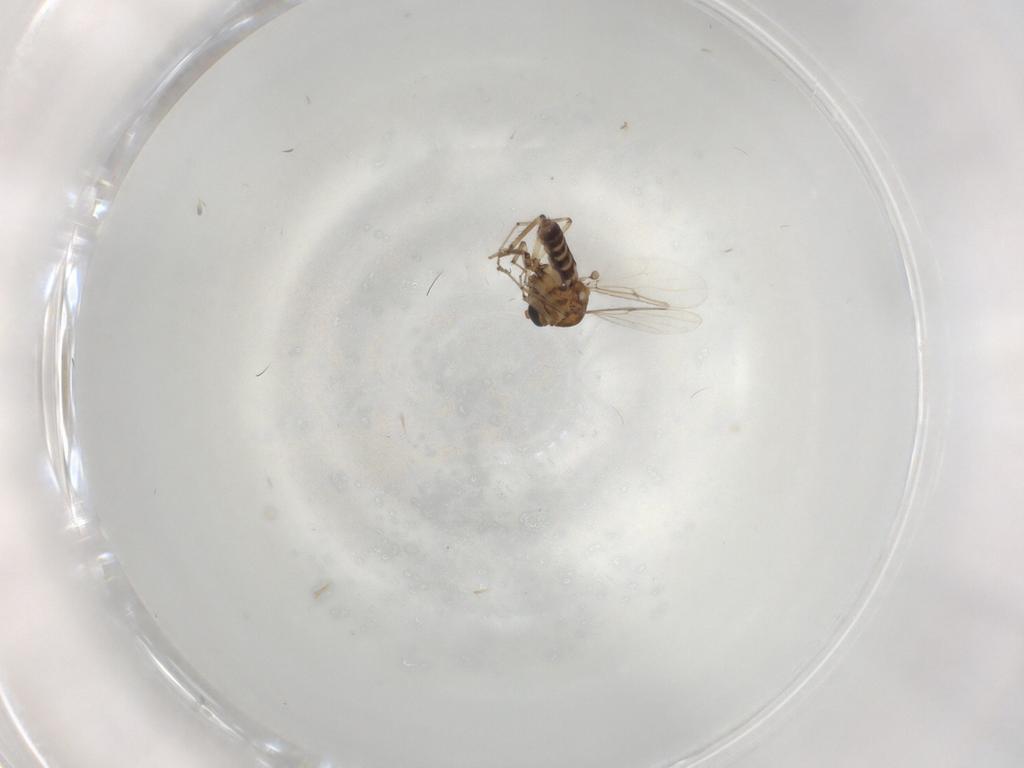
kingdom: Animalia
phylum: Arthropoda
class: Insecta
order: Diptera
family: Ceratopogonidae
